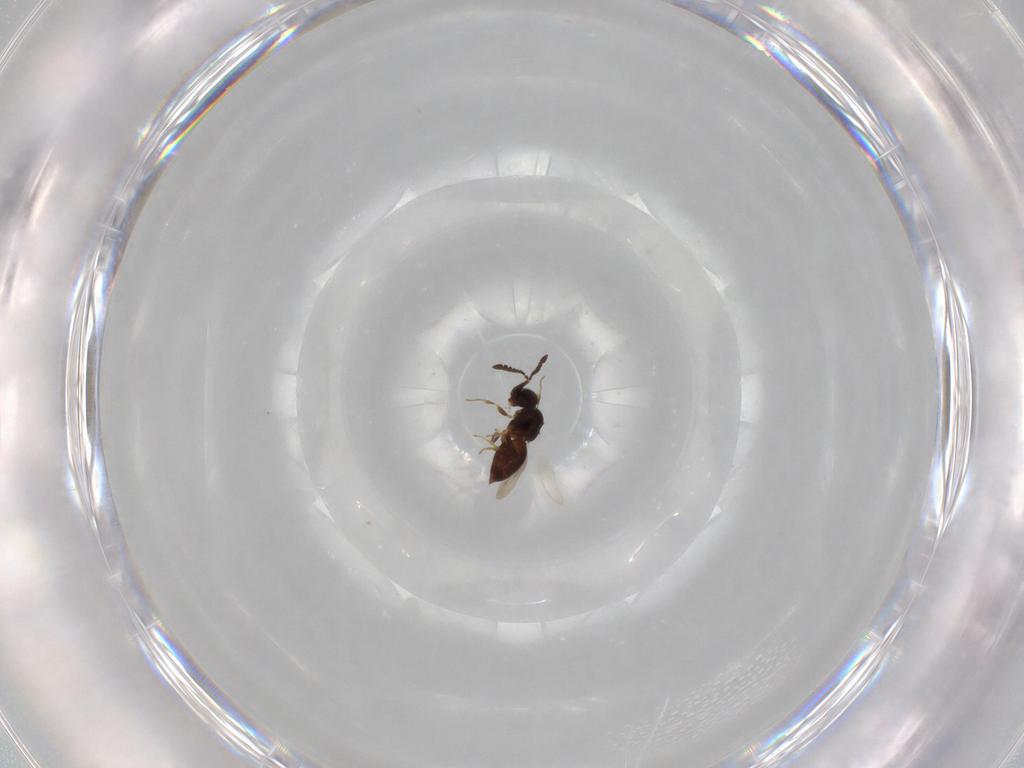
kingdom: Animalia
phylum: Arthropoda
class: Insecta
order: Hymenoptera
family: Ceraphronidae
